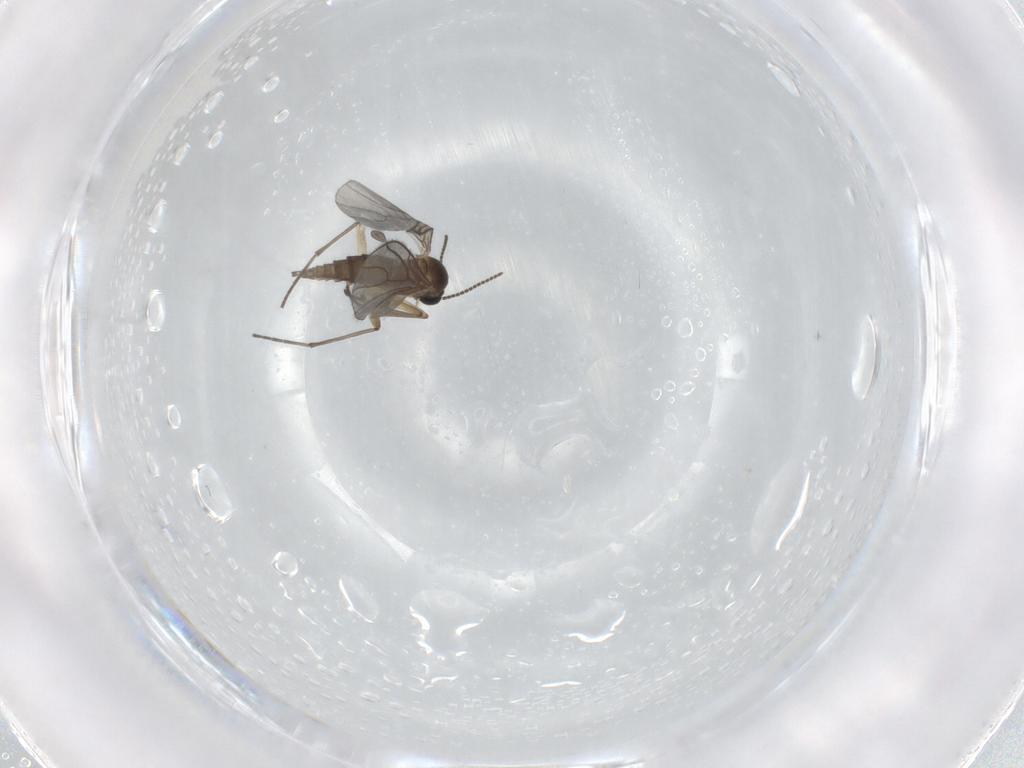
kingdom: Animalia
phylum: Arthropoda
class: Insecta
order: Diptera
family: Sciaridae
